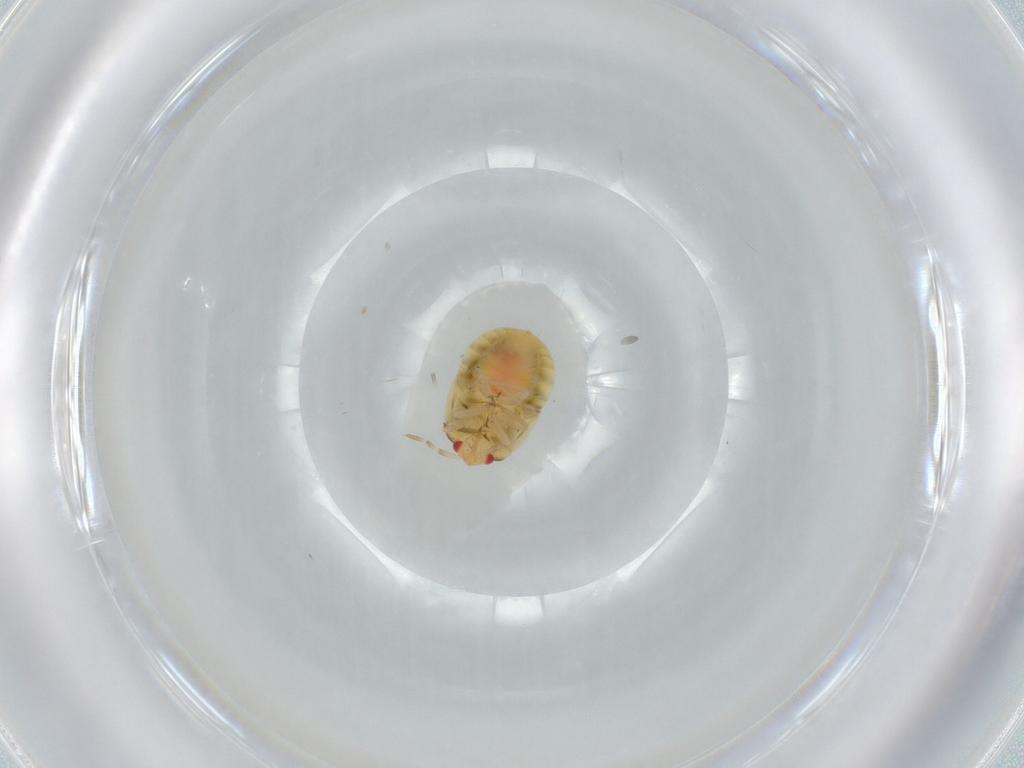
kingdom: Animalia
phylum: Arthropoda
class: Insecta
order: Hemiptera
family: Anthocoridae
